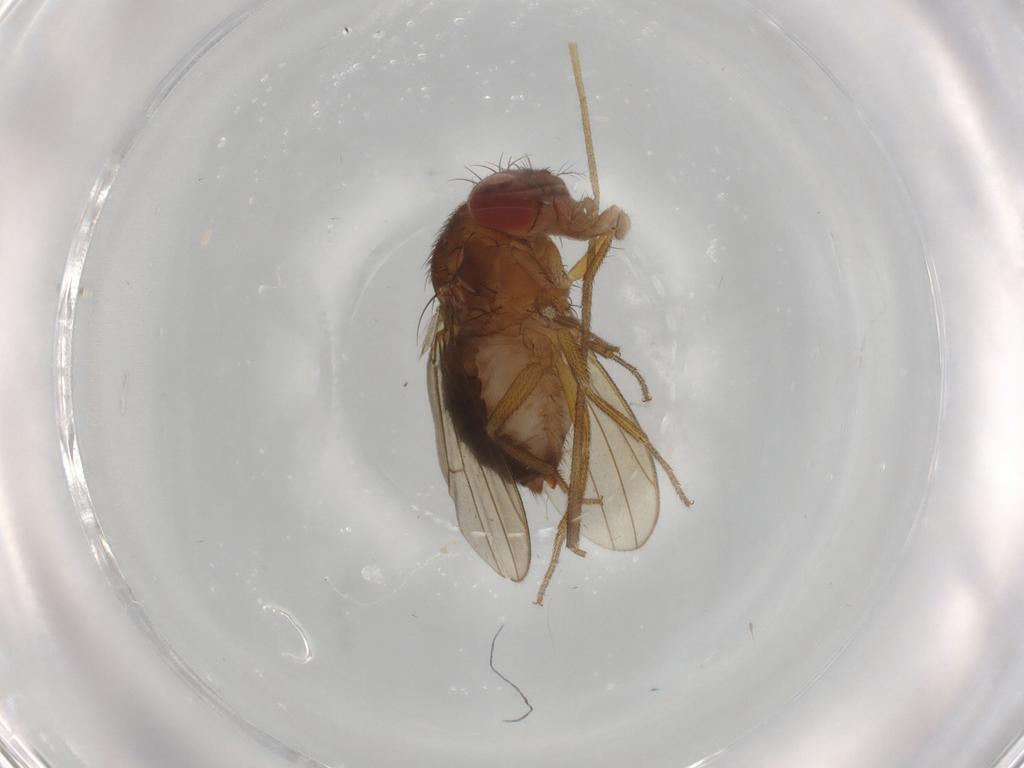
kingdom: Animalia
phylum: Arthropoda
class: Insecta
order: Diptera
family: Drosophilidae
